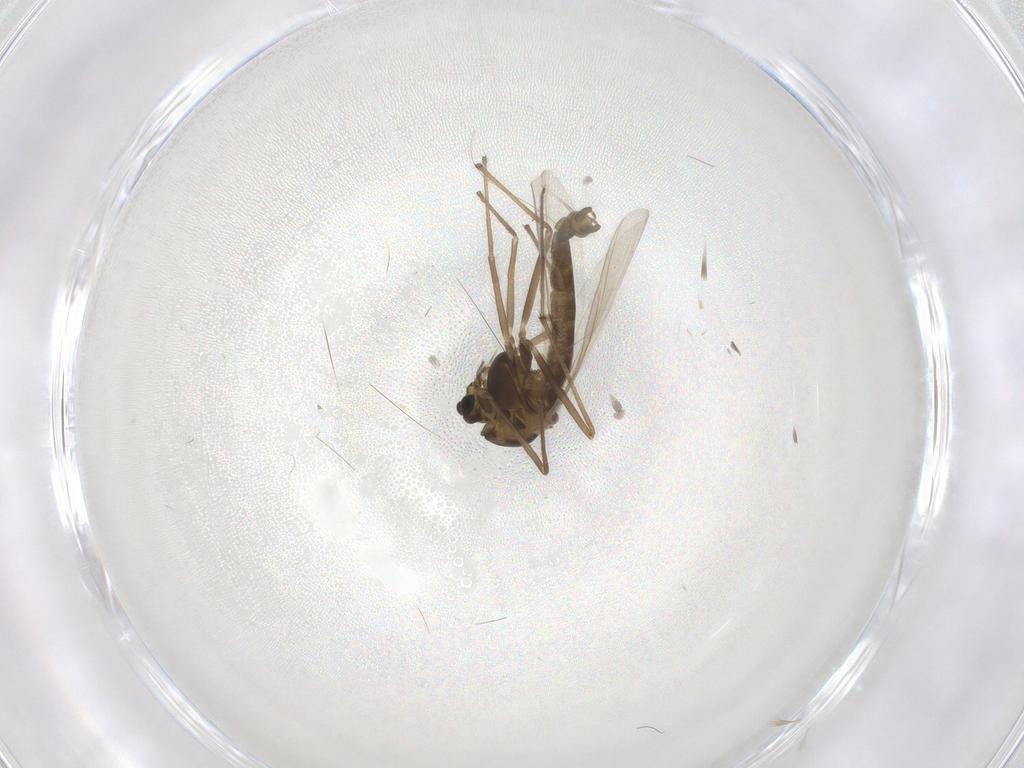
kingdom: Animalia
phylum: Arthropoda
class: Insecta
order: Diptera
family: Chironomidae
